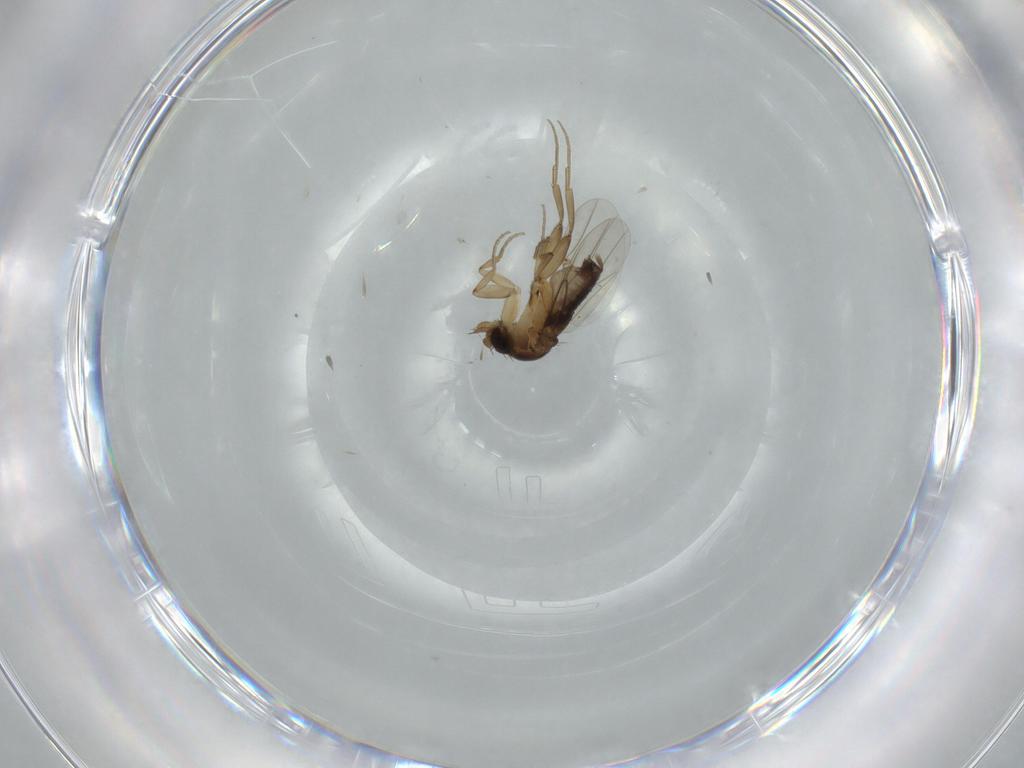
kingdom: Animalia
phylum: Arthropoda
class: Insecta
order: Diptera
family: Phoridae
